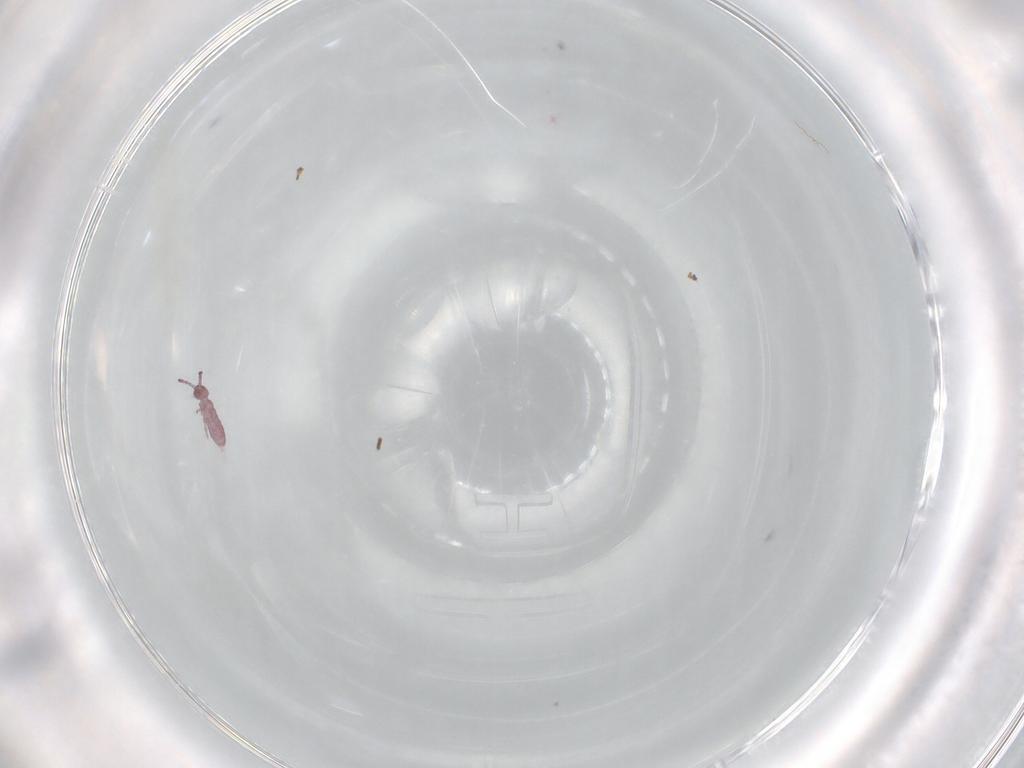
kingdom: Animalia
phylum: Arthropoda
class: Collembola
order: Entomobryomorpha
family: Isotomidae
